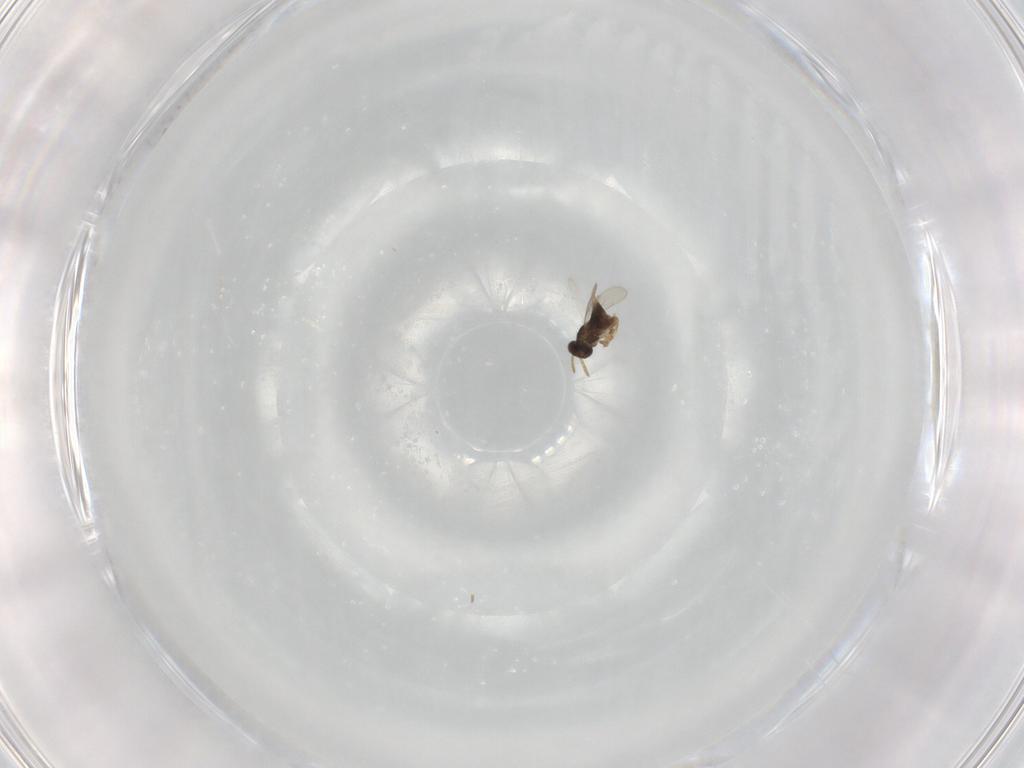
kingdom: Animalia
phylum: Arthropoda
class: Insecta
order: Hymenoptera
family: Aphelinidae
